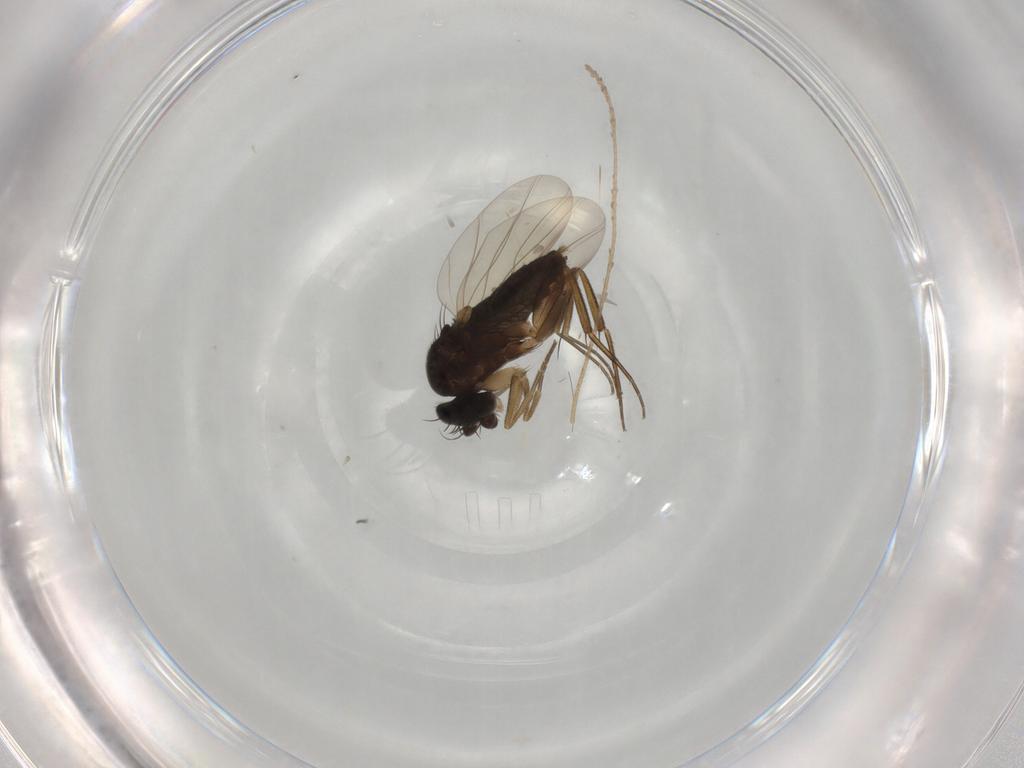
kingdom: Animalia
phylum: Arthropoda
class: Insecta
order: Diptera
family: Phoridae
